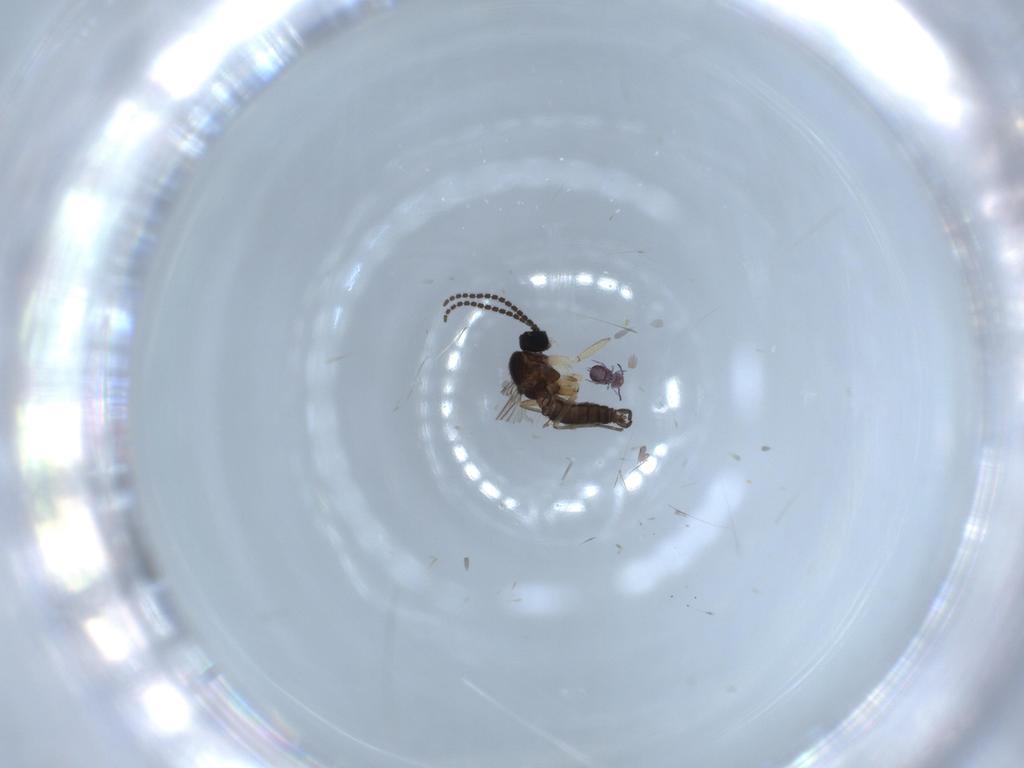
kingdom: Animalia
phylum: Arthropoda
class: Insecta
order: Diptera
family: Sciaridae
